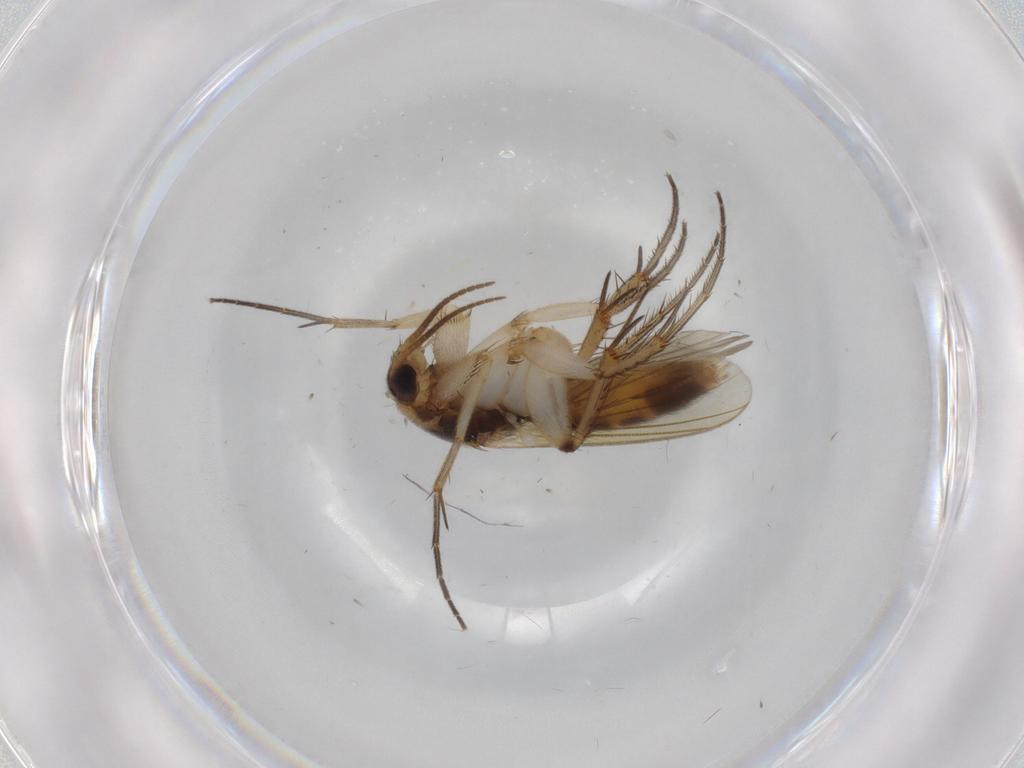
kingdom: Animalia
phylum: Arthropoda
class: Insecta
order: Diptera
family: Mycetophilidae
